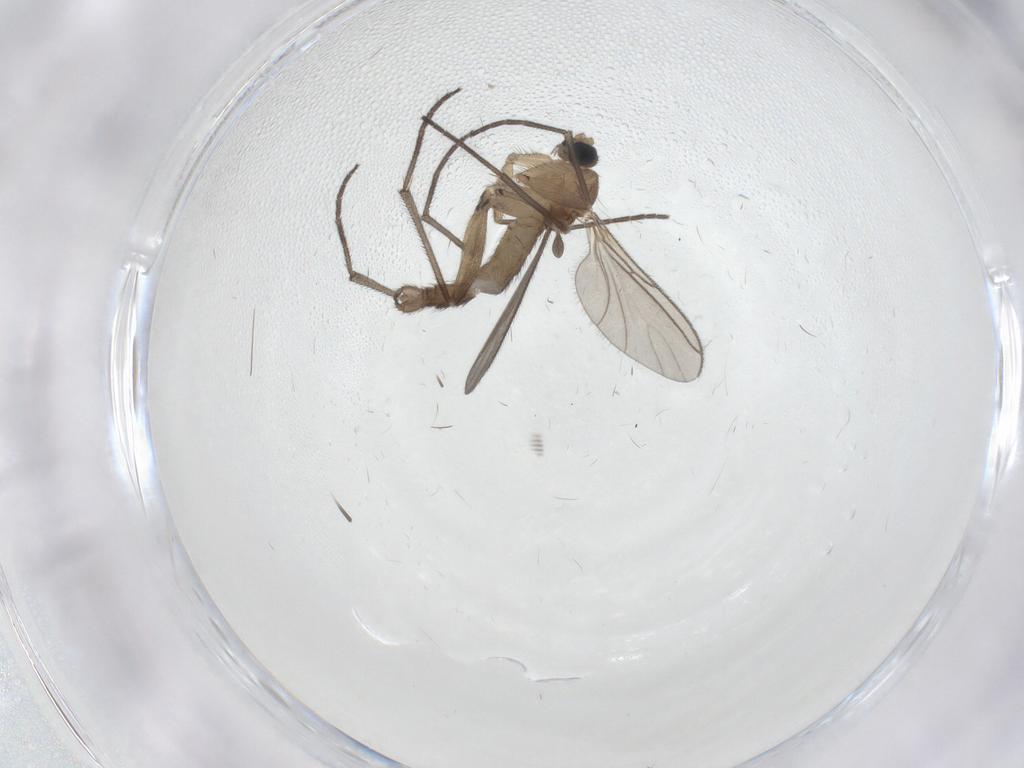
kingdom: Animalia
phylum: Arthropoda
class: Insecta
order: Diptera
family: Sciaridae
